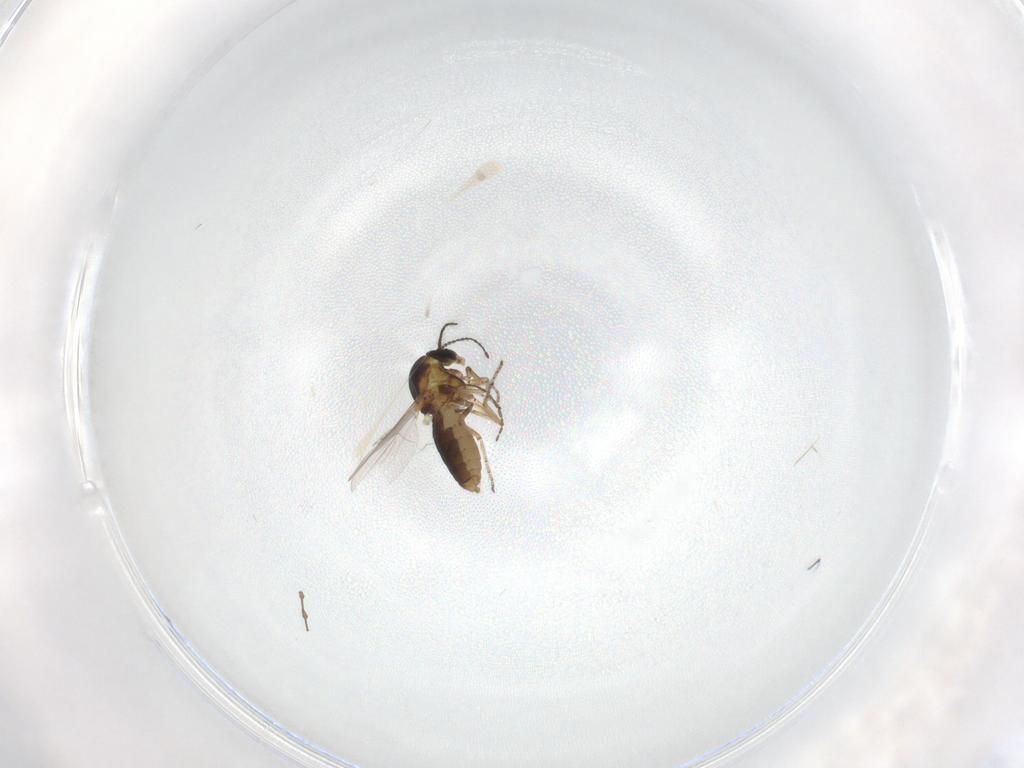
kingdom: Animalia
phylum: Arthropoda
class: Insecta
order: Diptera
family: Ceratopogonidae
